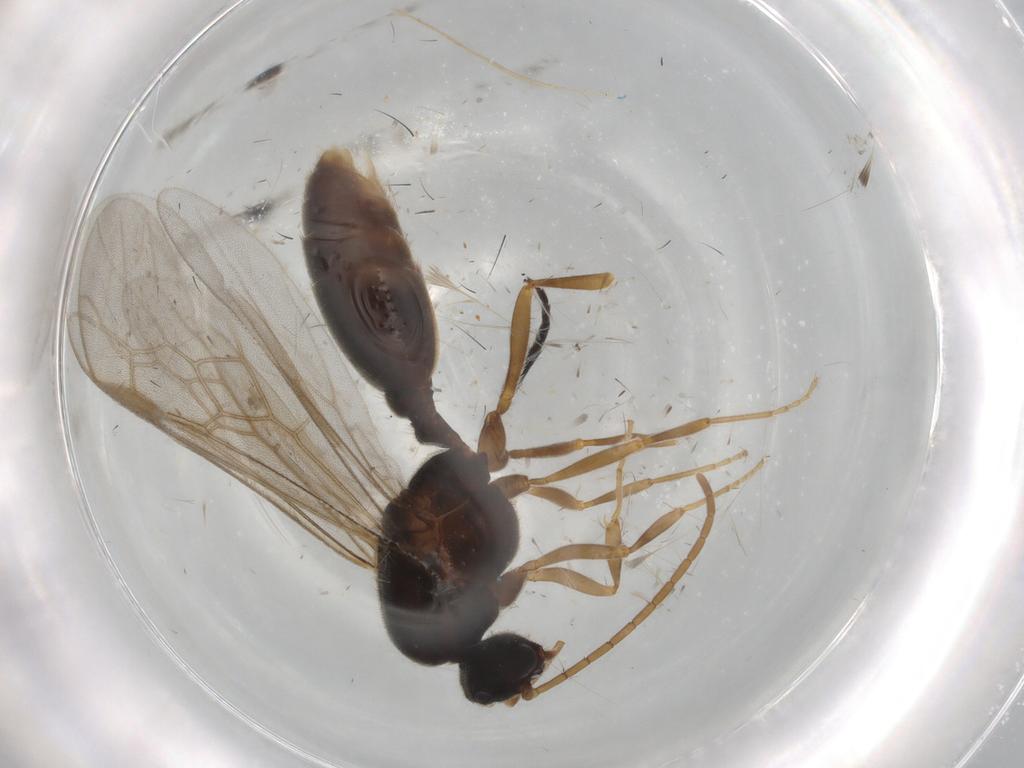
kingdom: Animalia
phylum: Arthropoda
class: Insecta
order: Hymenoptera
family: Formicidae
